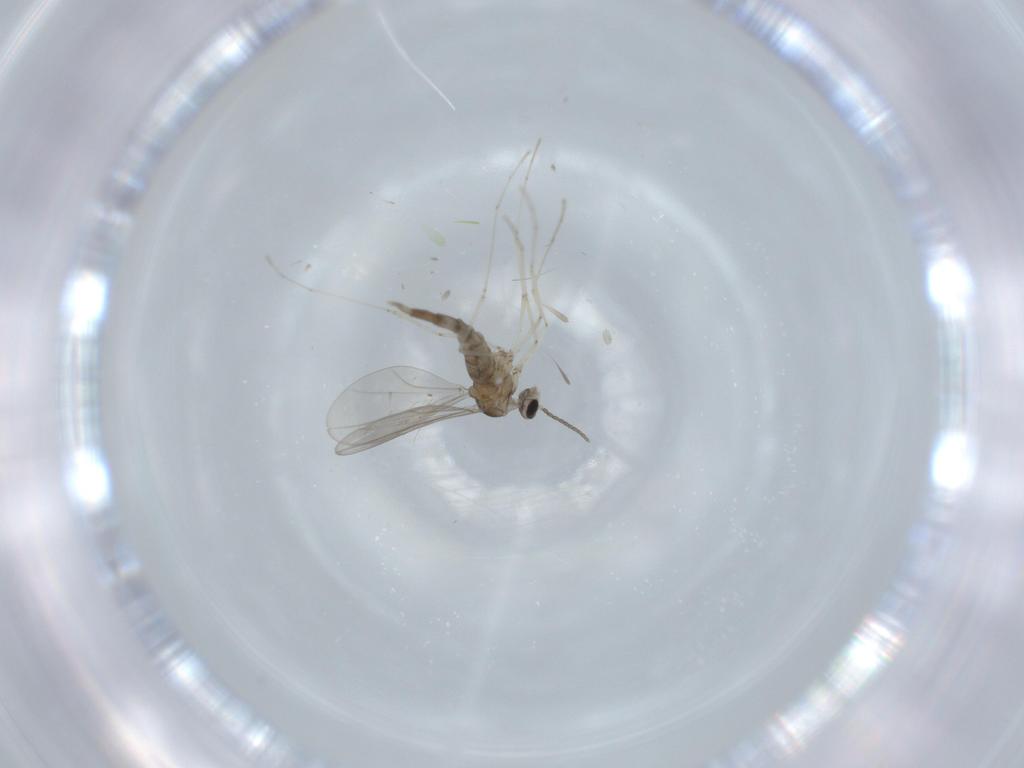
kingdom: Animalia
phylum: Arthropoda
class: Insecta
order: Diptera
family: Cecidomyiidae
